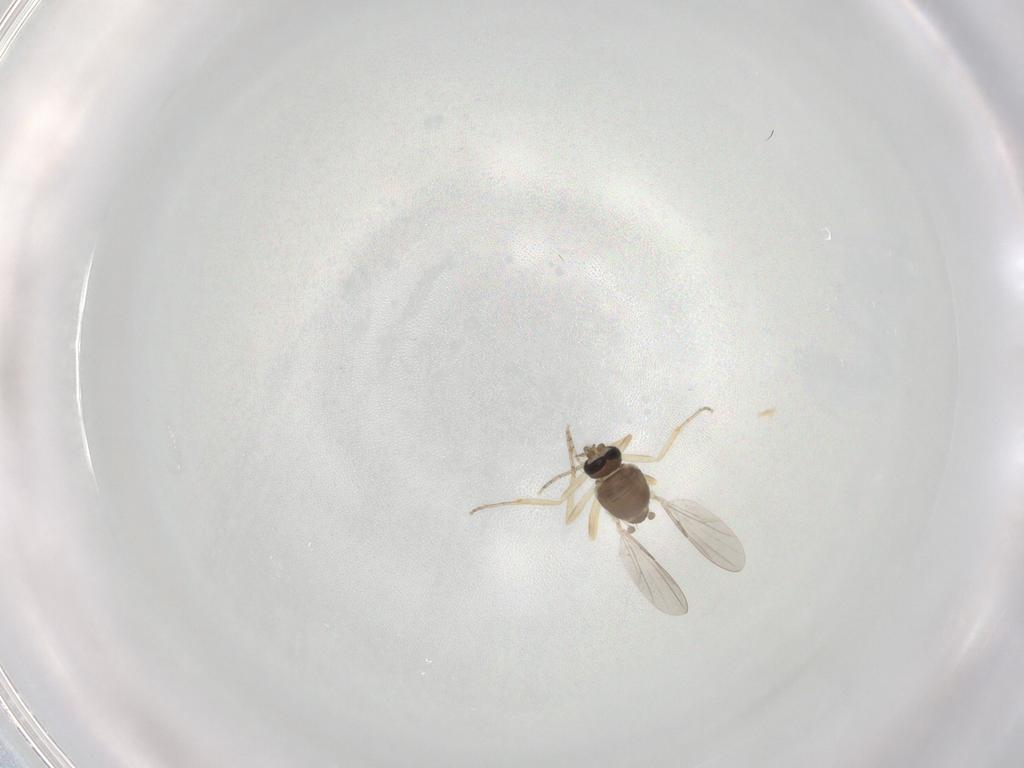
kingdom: Animalia
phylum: Arthropoda
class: Insecta
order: Diptera
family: Ceratopogonidae
